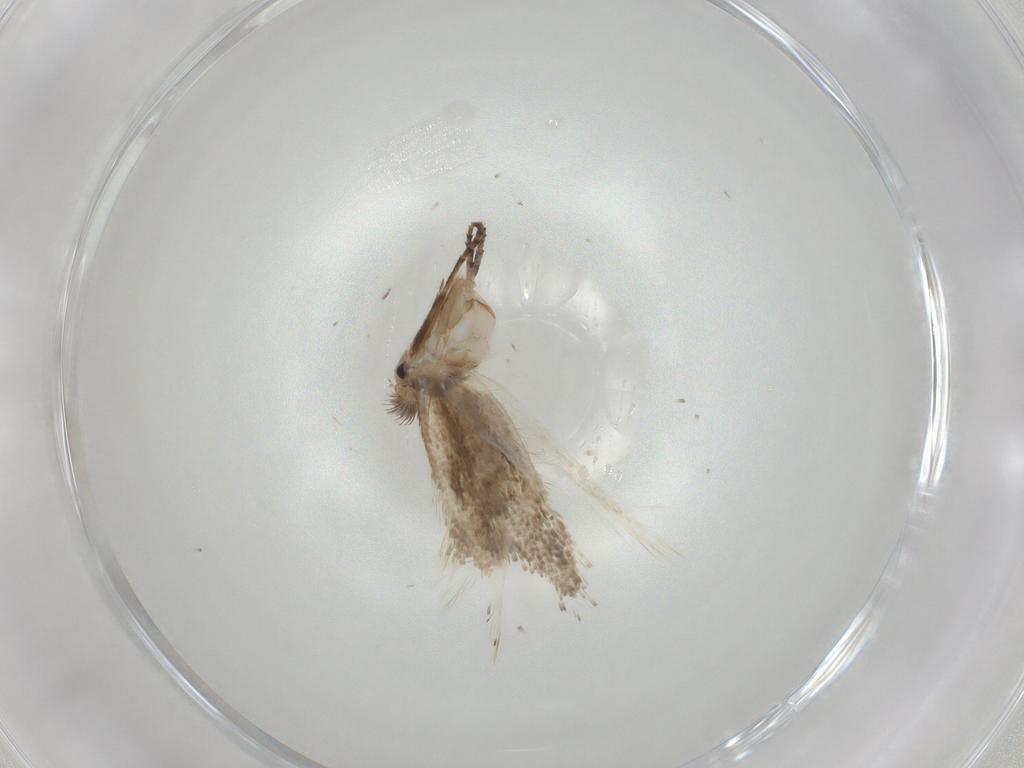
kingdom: Animalia
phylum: Arthropoda
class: Insecta
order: Lepidoptera
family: Bucculatricidae
